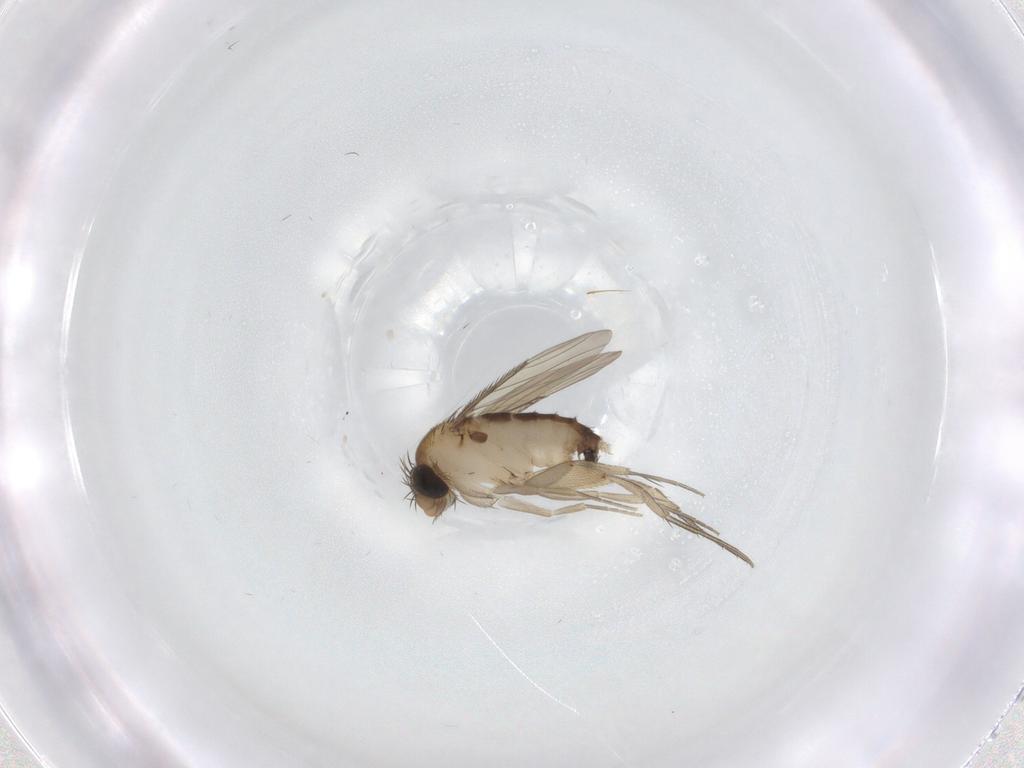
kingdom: Animalia
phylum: Arthropoda
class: Insecta
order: Diptera
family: Phoridae
